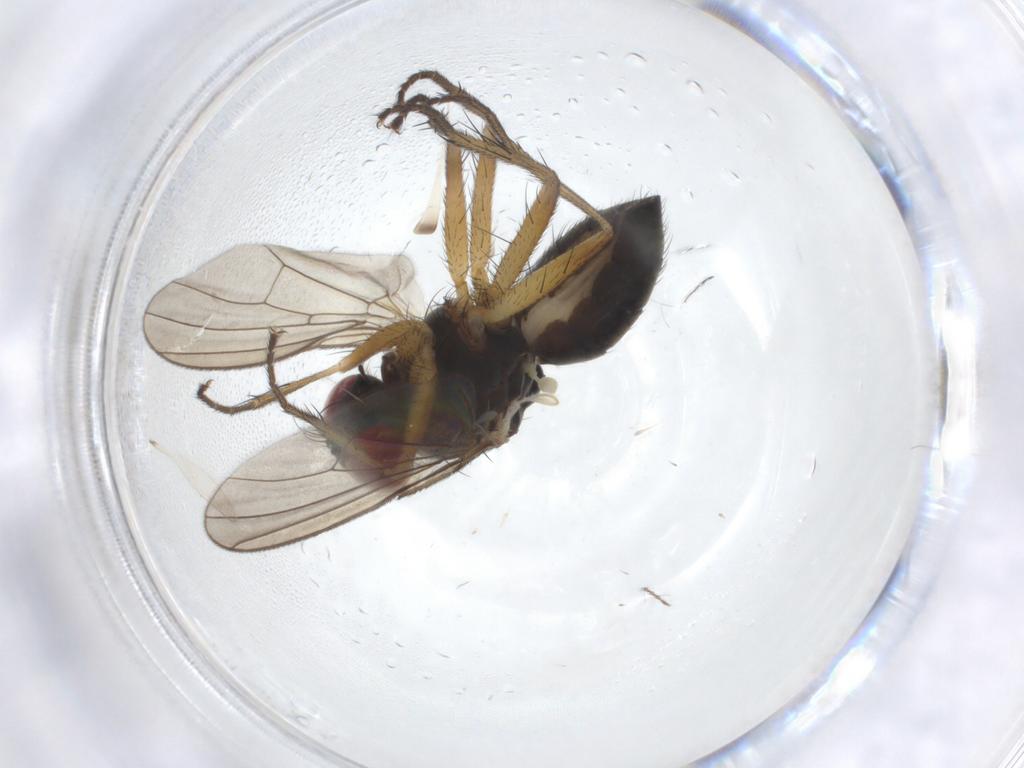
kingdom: Animalia
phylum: Arthropoda
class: Insecta
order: Diptera
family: Muscidae
